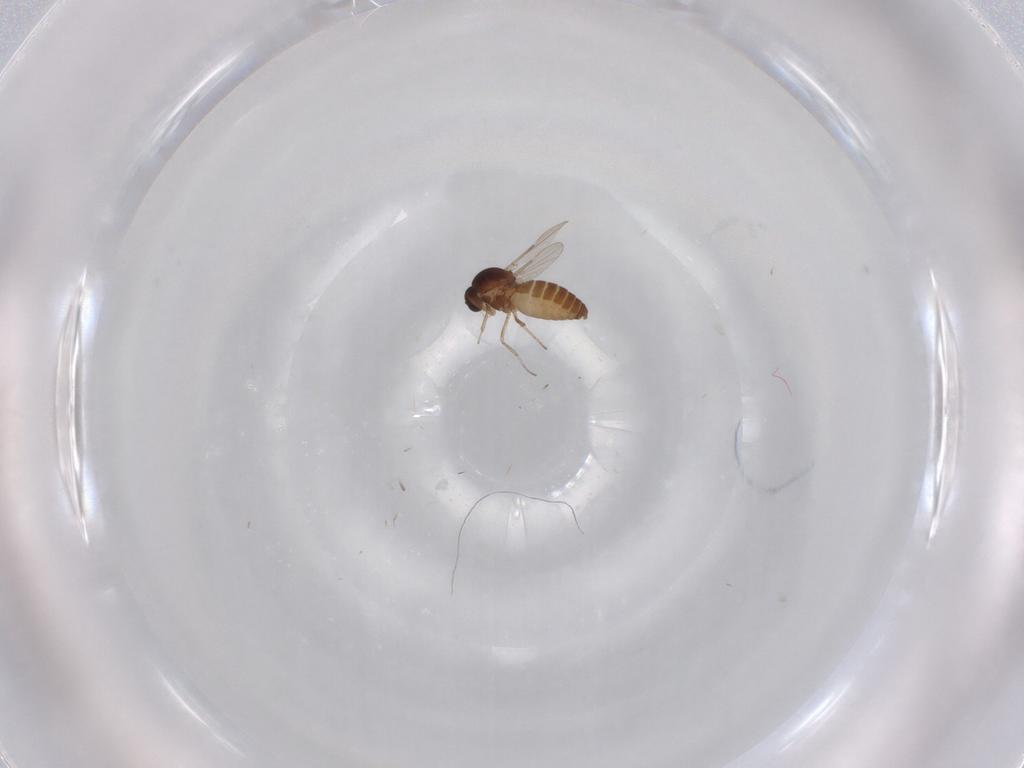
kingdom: Animalia
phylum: Arthropoda
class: Insecta
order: Diptera
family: Ceratopogonidae
